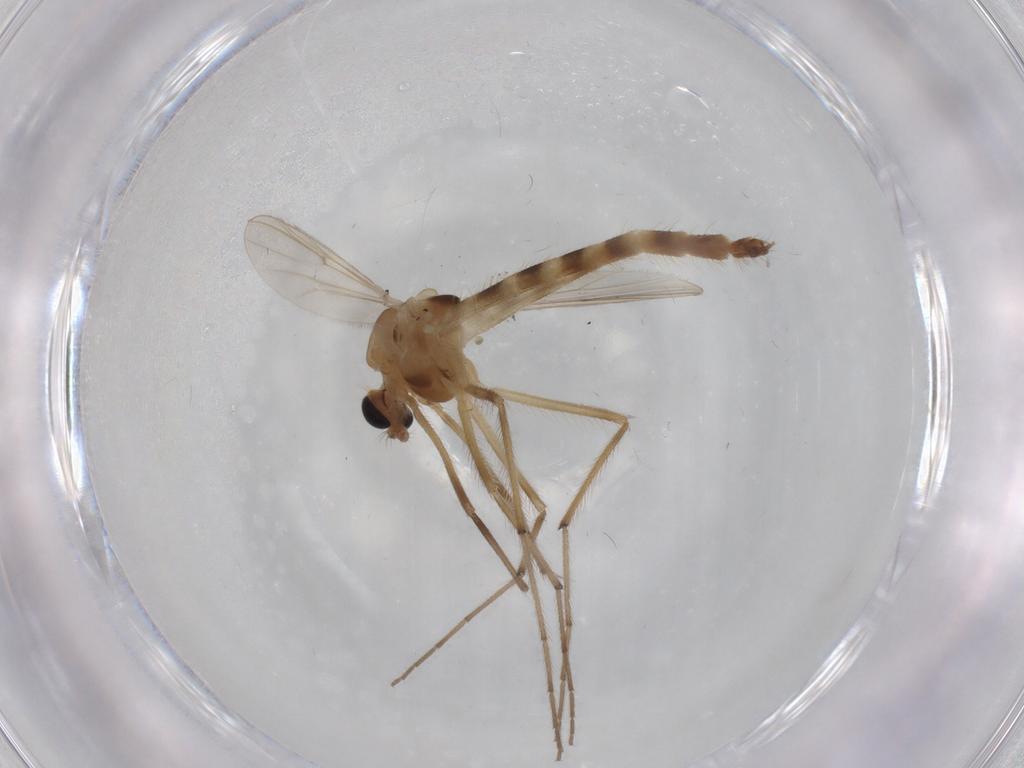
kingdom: Animalia
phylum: Arthropoda
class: Insecta
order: Diptera
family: Chironomidae
